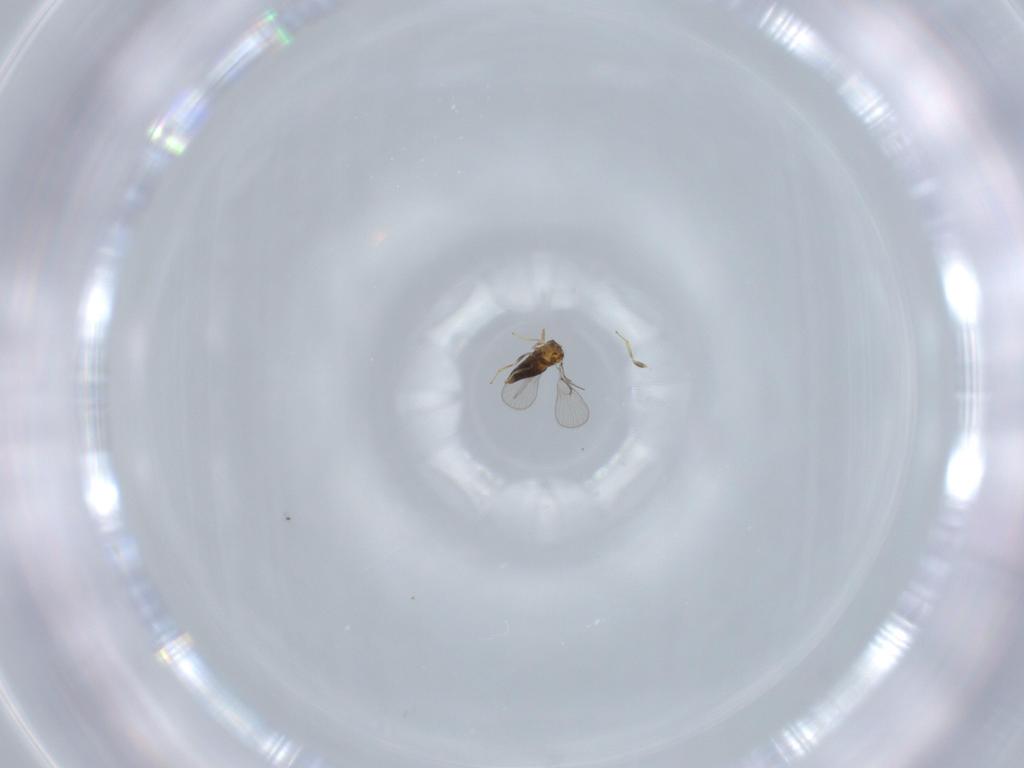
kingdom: Animalia
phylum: Arthropoda
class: Insecta
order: Hymenoptera
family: Trichogrammatidae
